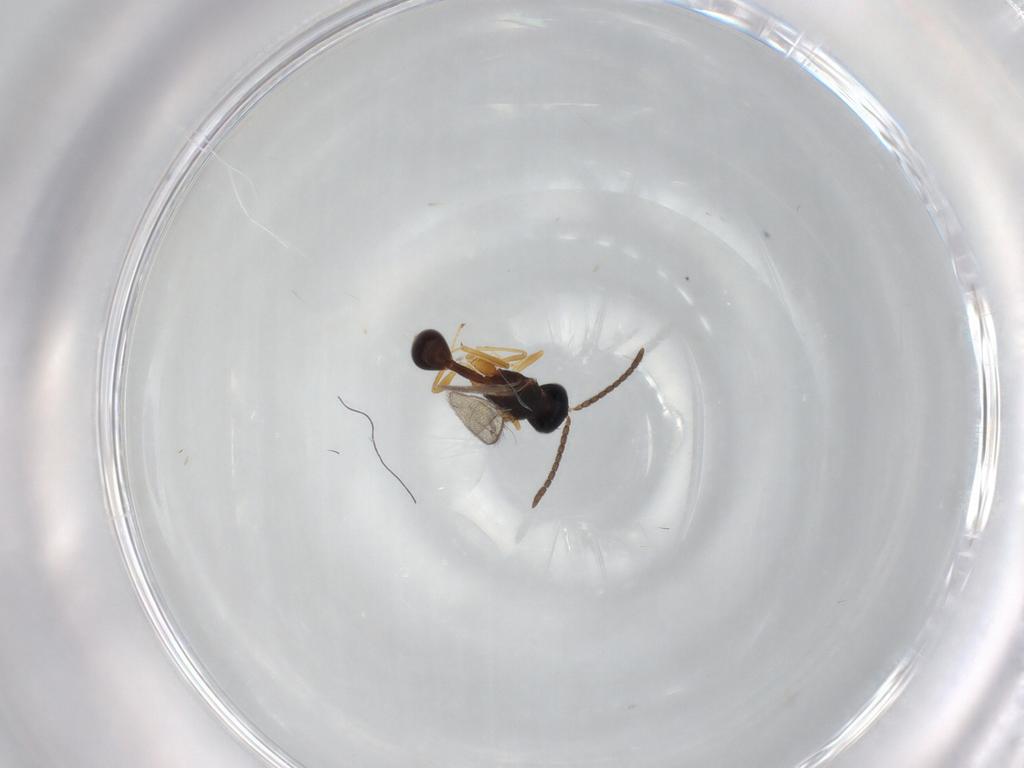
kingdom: Animalia
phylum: Arthropoda
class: Insecta
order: Hymenoptera
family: Diparidae
